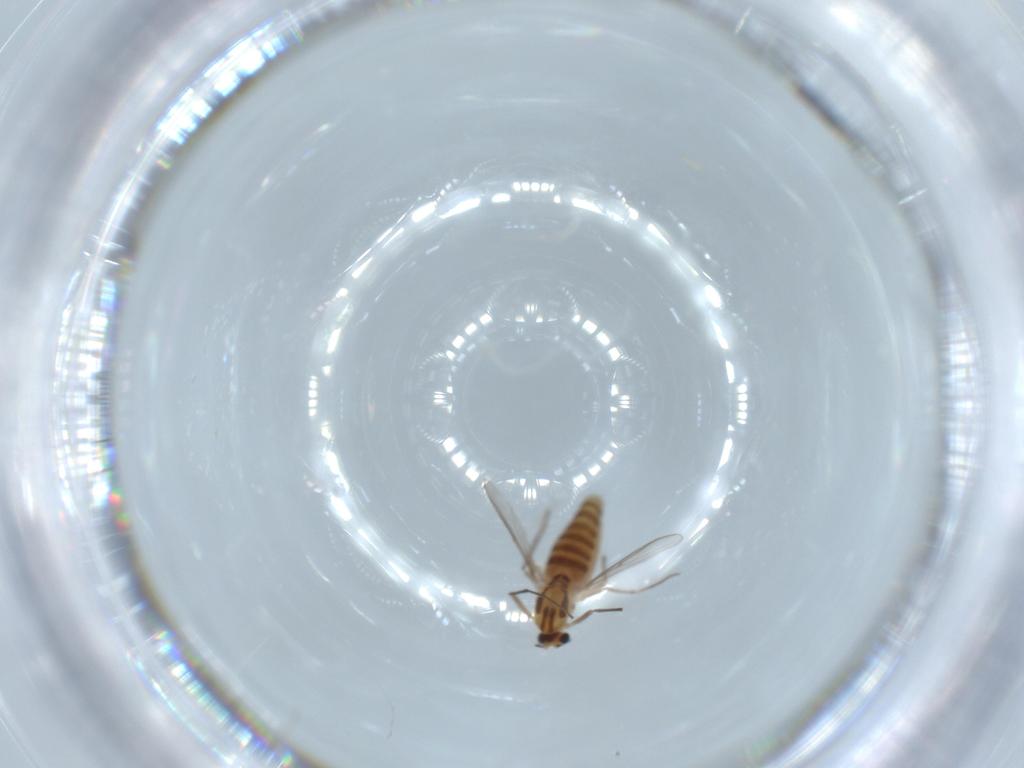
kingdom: Animalia
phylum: Arthropoda
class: Insecta
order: Diptera
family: Chironomidae
